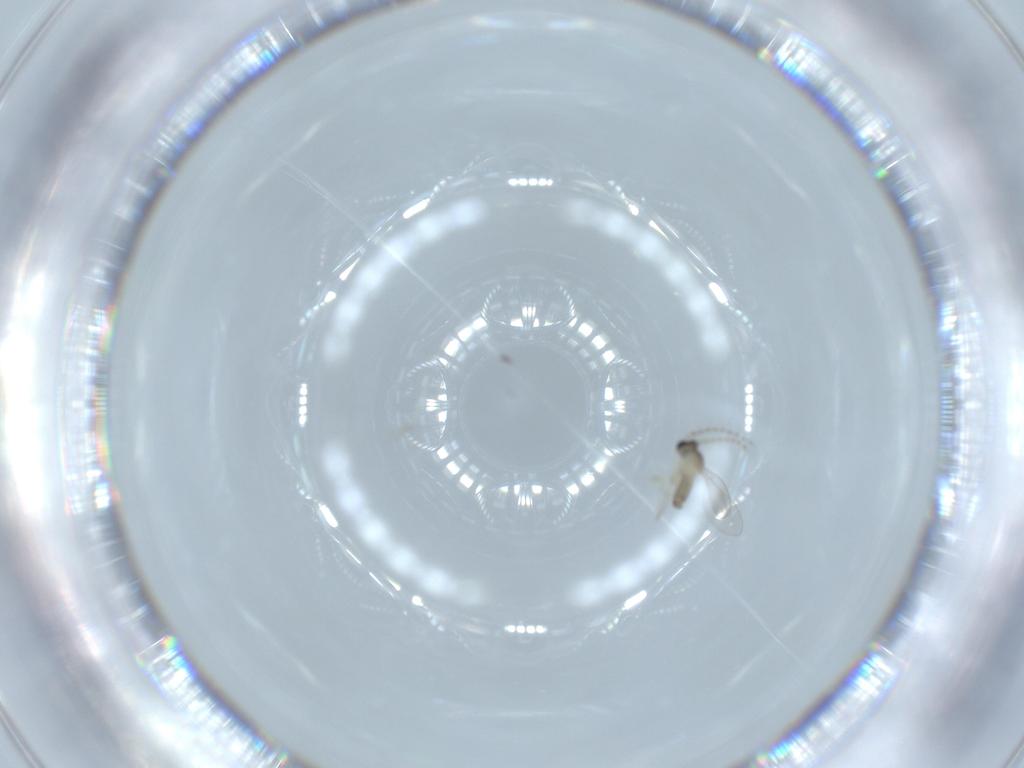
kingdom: Animalia
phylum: Arthropoda
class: Insecta
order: Diptera
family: Cecidomyiidae
